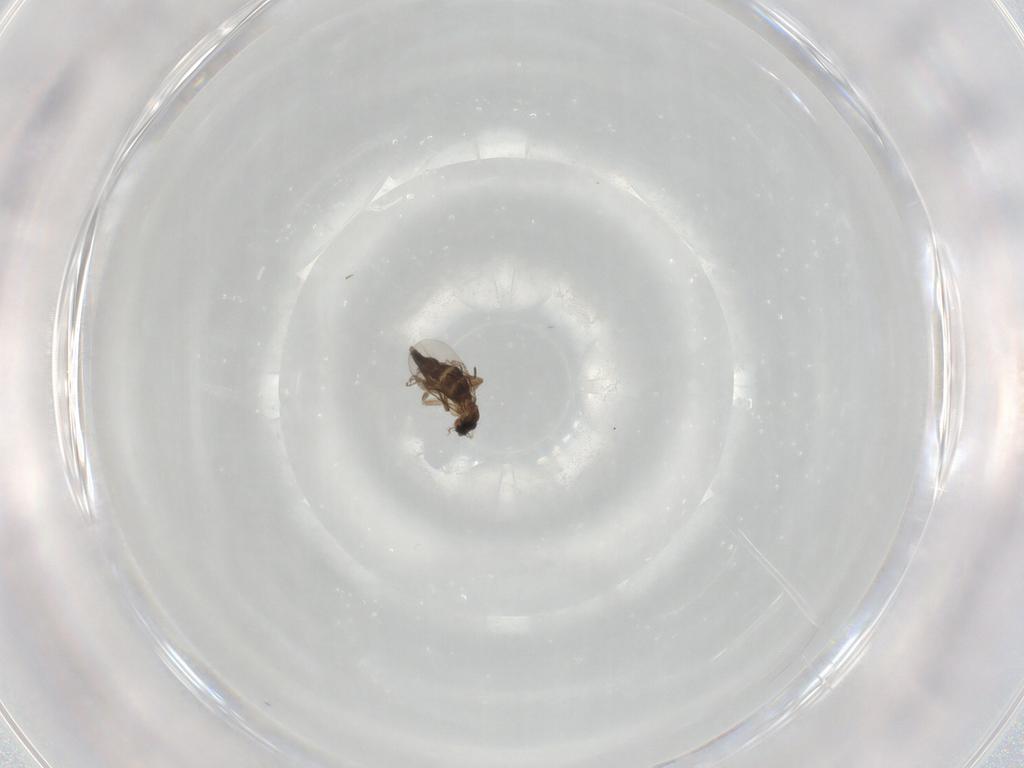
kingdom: Animalia
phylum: Arthropoda
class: Insecta
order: Diptera
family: Phoridae
